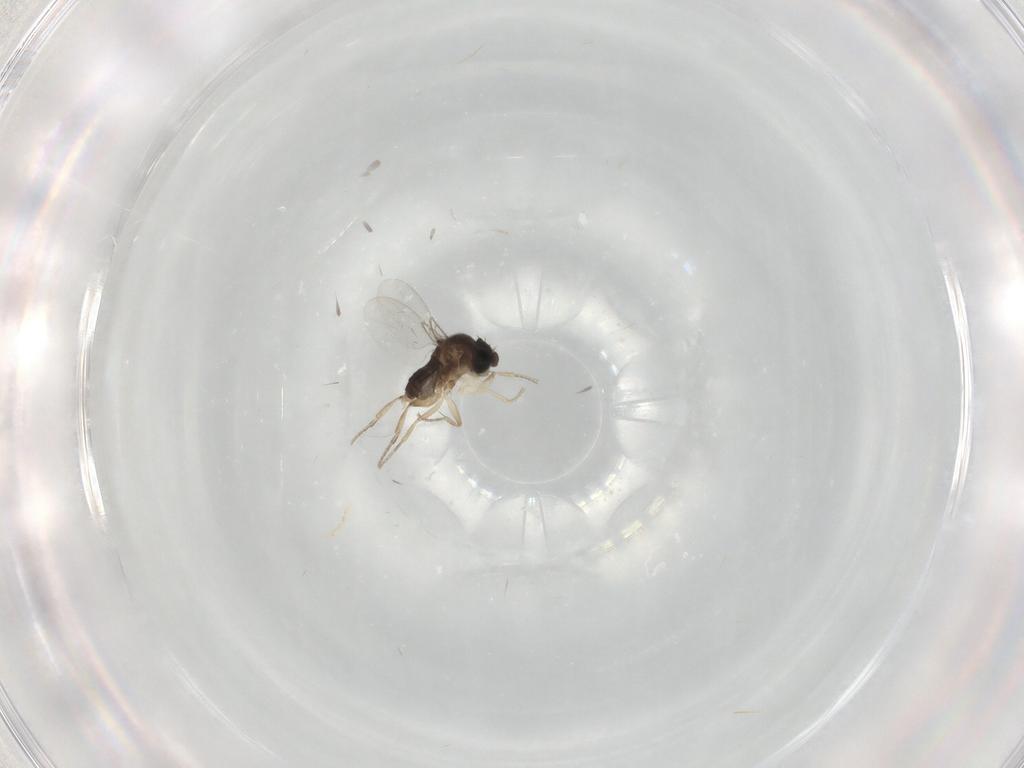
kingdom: Animalia
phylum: Arthropoda
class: Insecta
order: Diptera
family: Phoridae
